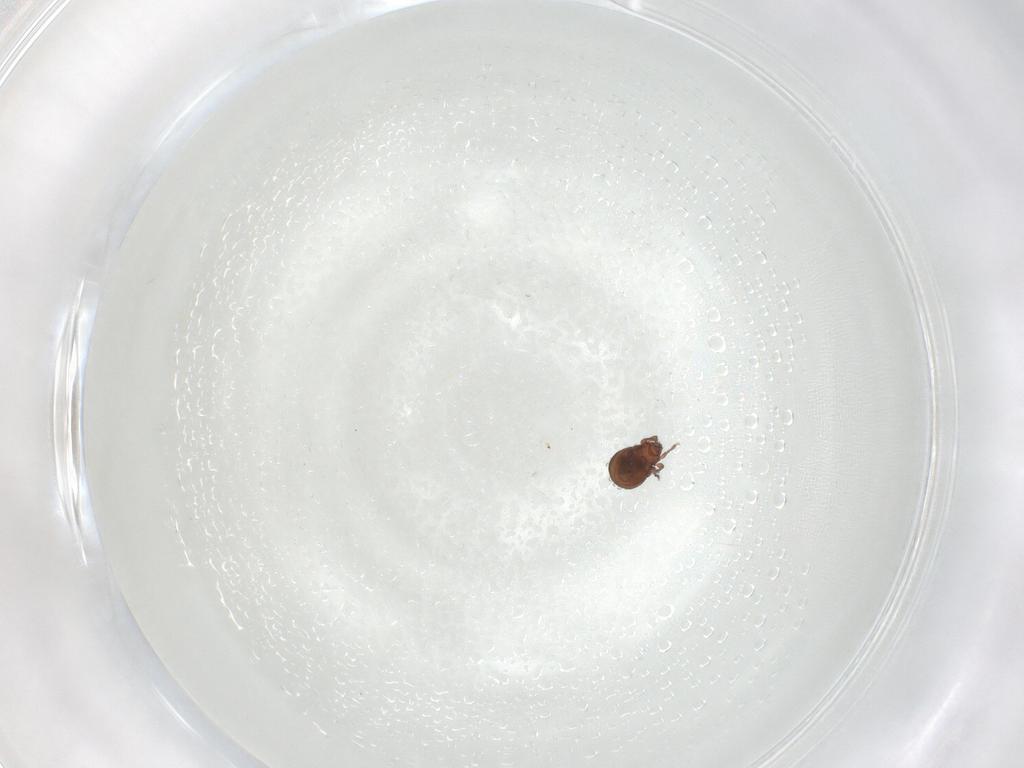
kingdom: Animalia
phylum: Arthropoda
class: Arachnida
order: Sarcoptiformes
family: Scheloribatidae
